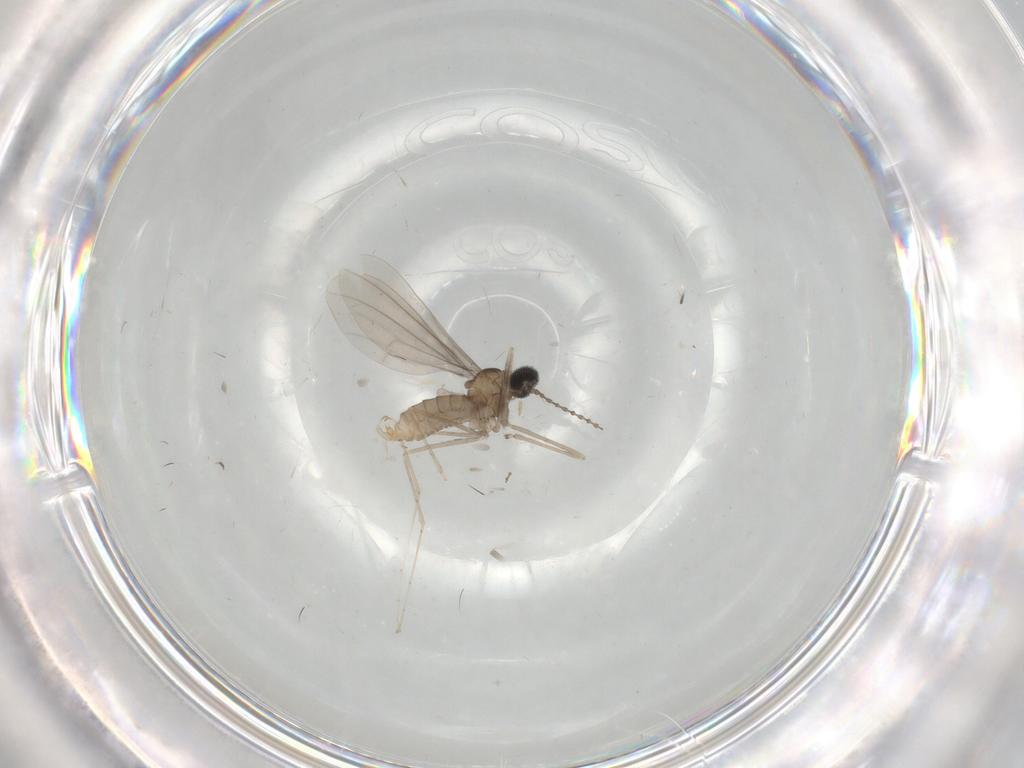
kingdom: Animalia
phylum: Arthropoda
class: Insecta
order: Diptera
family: Cecidomyiidae
